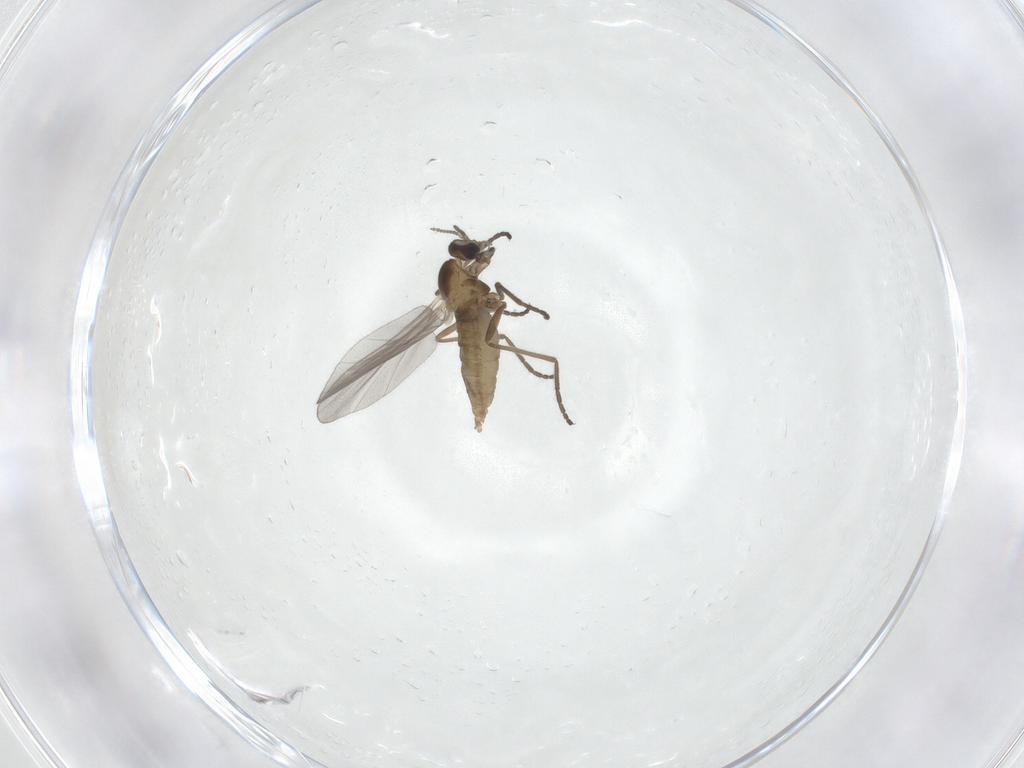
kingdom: Animalia
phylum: Arthropoda
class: Insecta
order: Diptera
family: Cecidomyiidae
